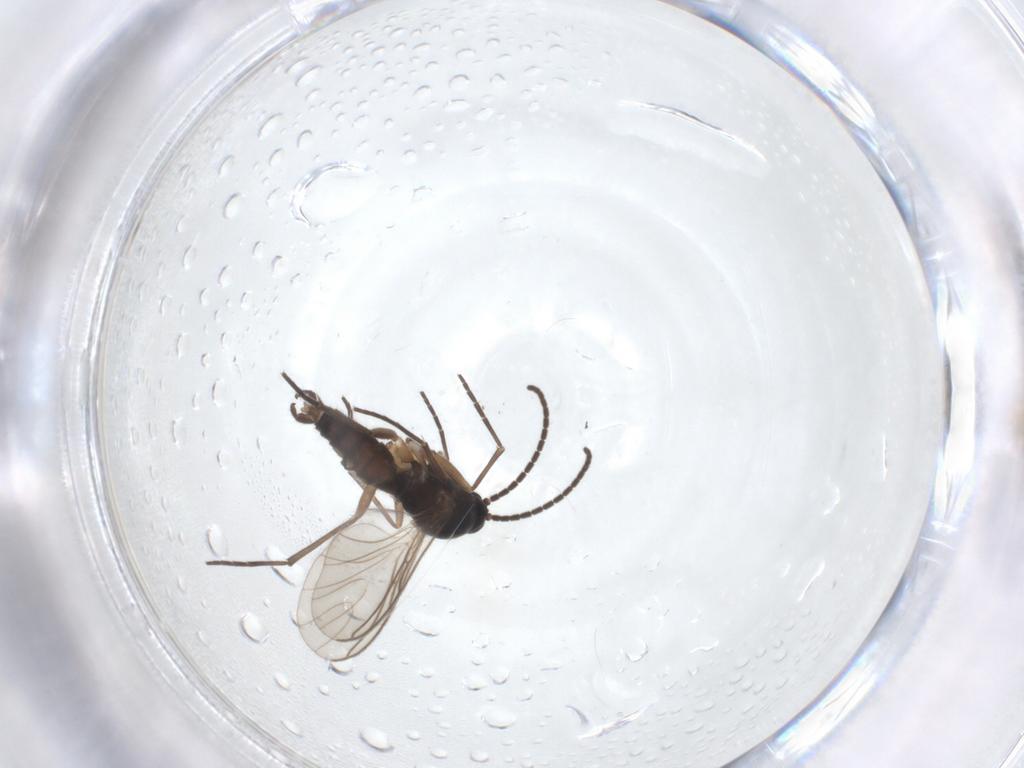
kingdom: Animalia
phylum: Arthropoda
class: Insecta
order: Diptera
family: Sciaridae
